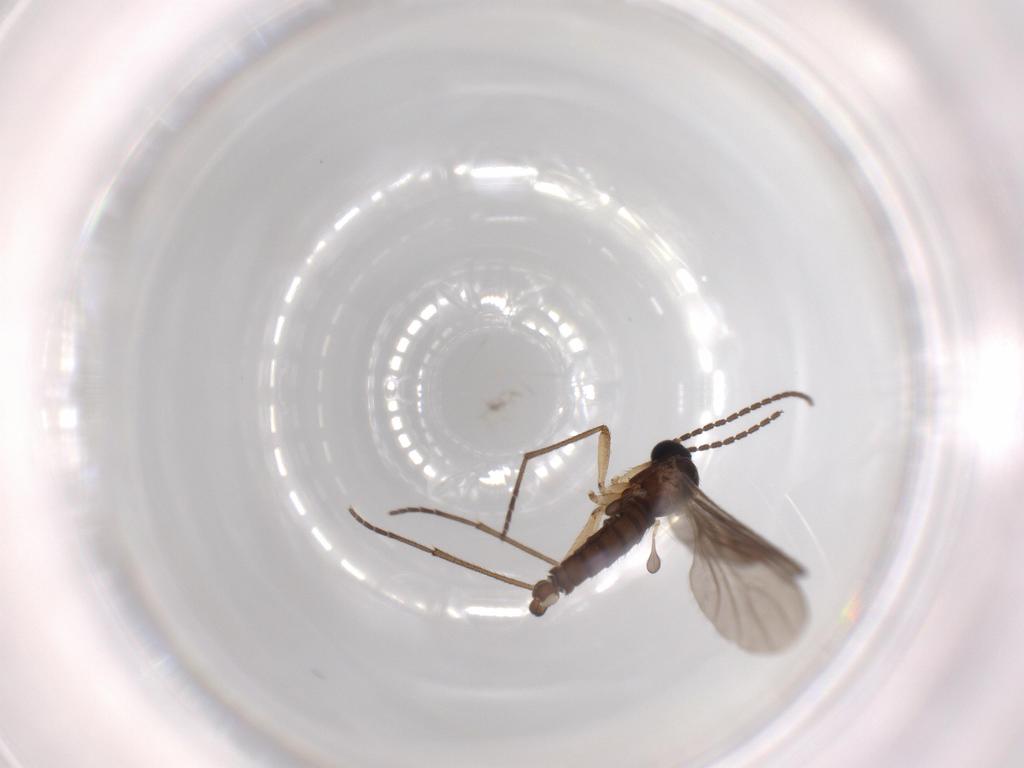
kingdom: Animalia
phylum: Arthropoda
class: Insecta
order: Diptera
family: Sciaridae
